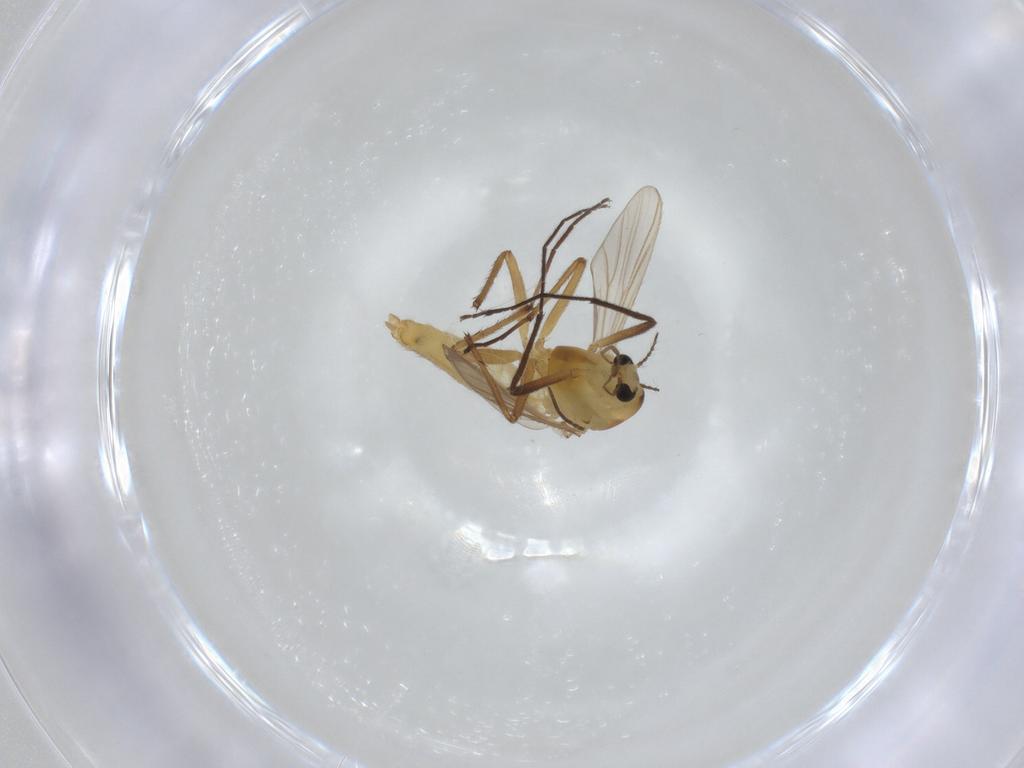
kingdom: Animalia
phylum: Arthropoda
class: Insecta
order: Diptera
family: Chironomidae
